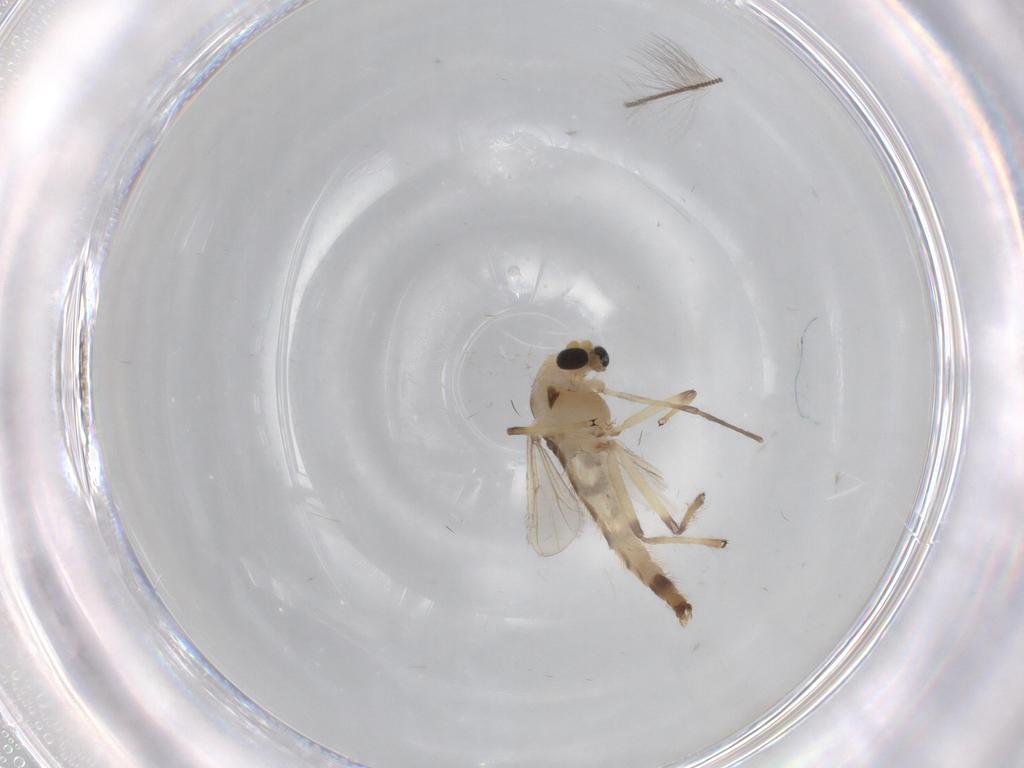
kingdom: Animalia
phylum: Arthropoda
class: Insecta
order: Diptera
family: Chironomidae
